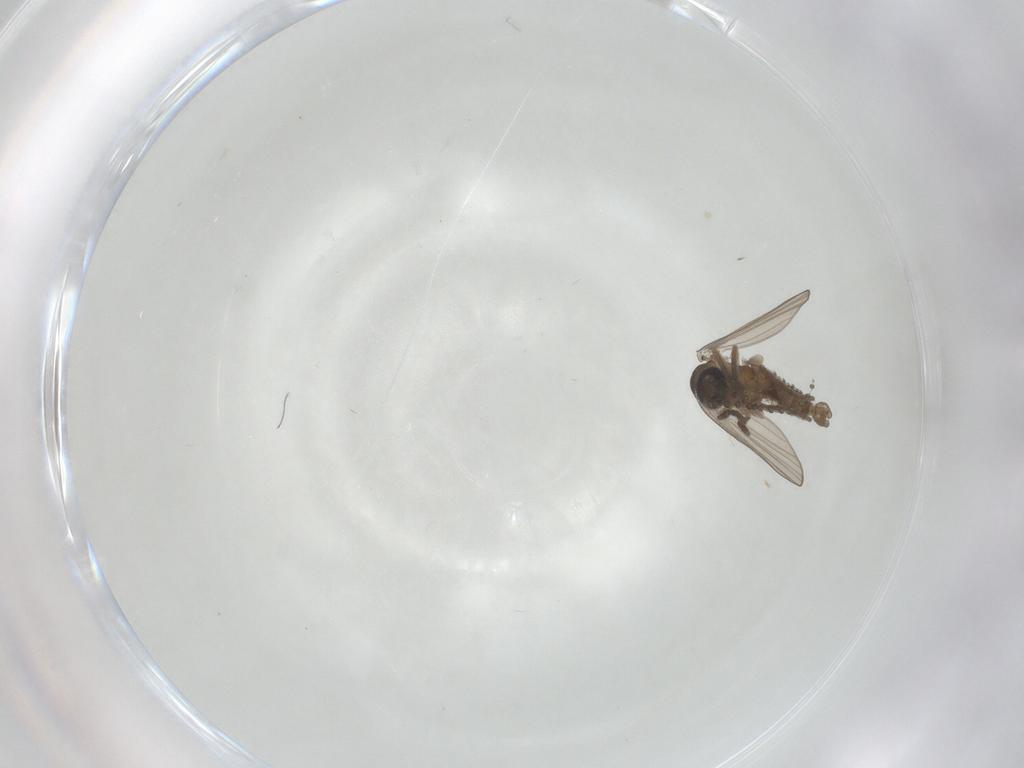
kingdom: Animalia
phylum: Arthropoda
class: Insecta
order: Diptera
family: Psychodidae
